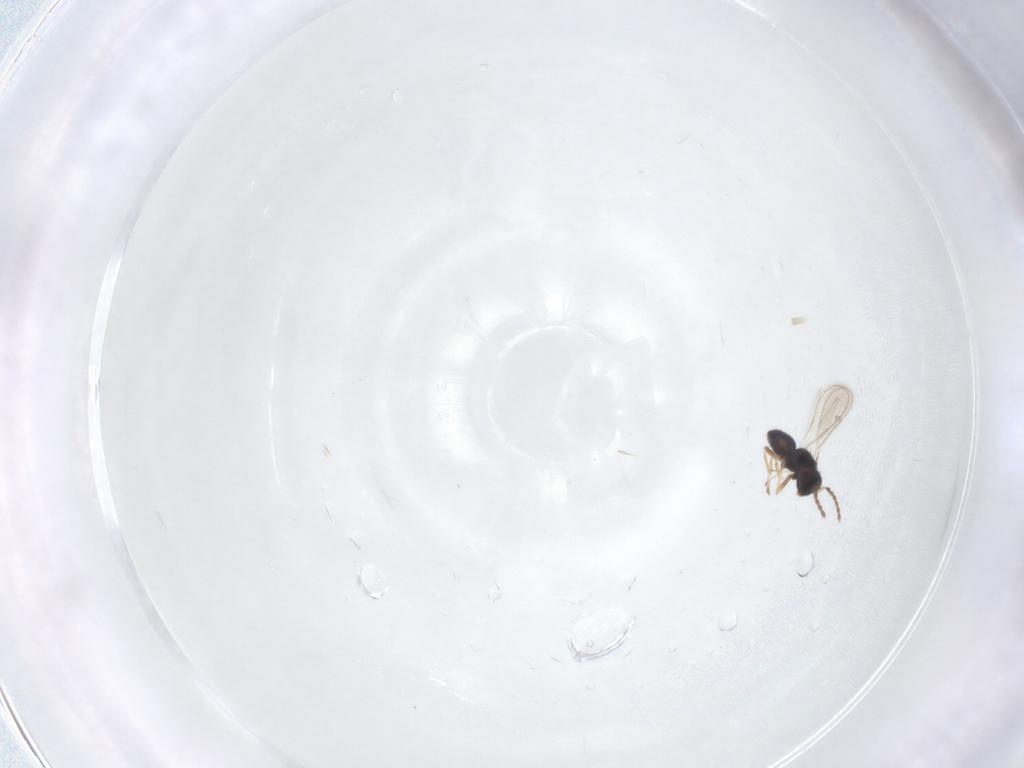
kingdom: Animalia
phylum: Arthropoda
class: Insecta
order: Hymenoptera
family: Eulophidae
